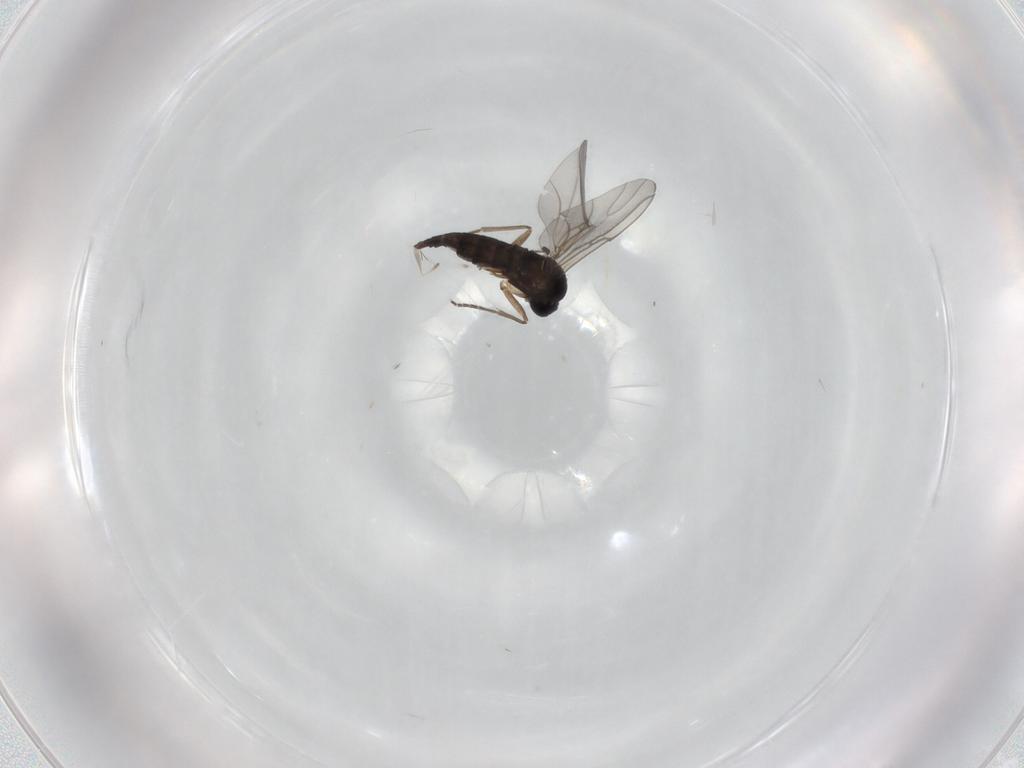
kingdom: Animalia
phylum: Arthropoda
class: Insecta
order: Diptera
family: Sciaridae
